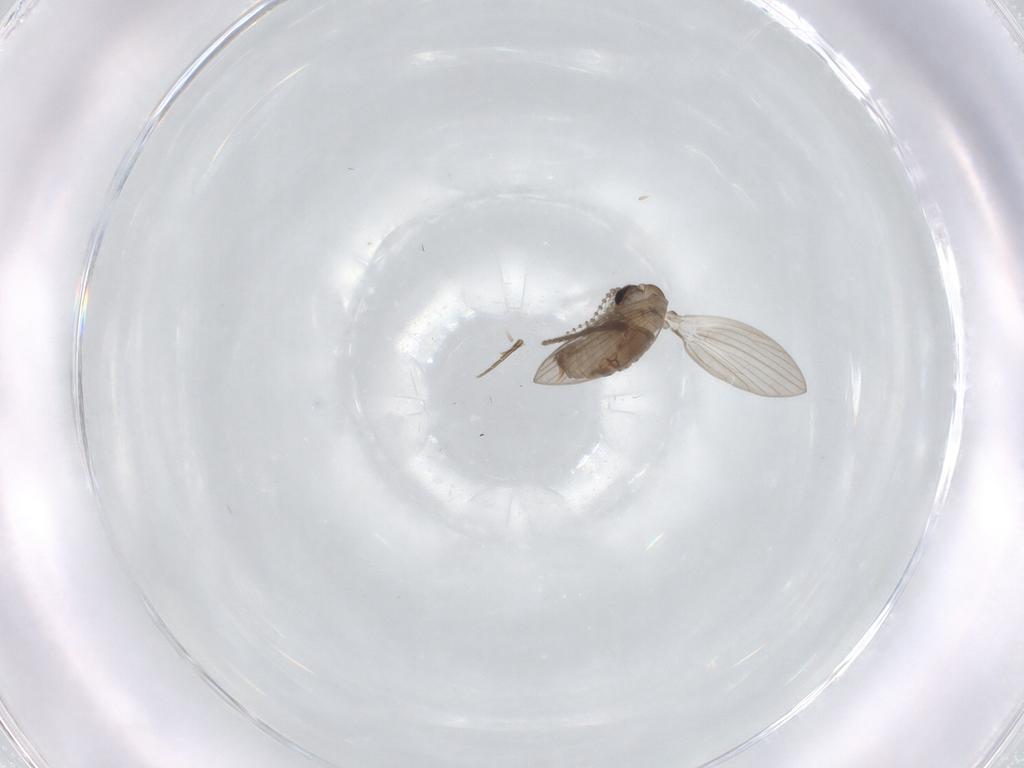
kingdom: Animalia
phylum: Arthropoda
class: Insecta
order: Diptera
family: Psychodidae
